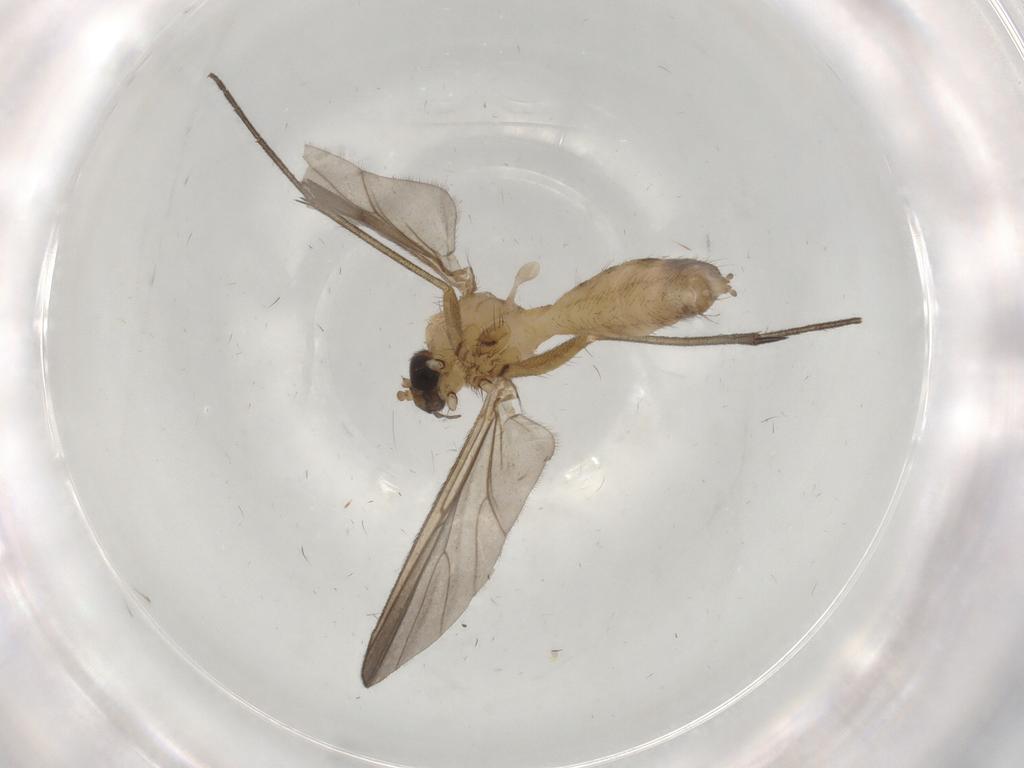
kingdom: Animalia
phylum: Arthropoda
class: Insecta
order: Diptera
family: Mycetophilidae
